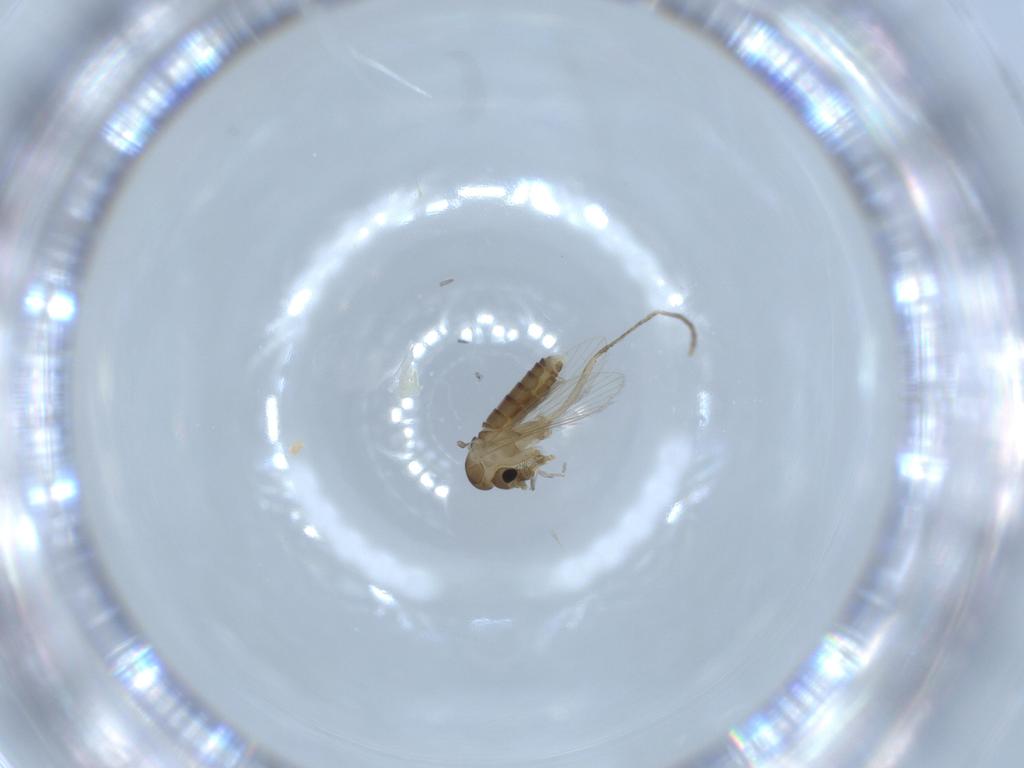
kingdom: Animalia
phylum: Arthropoda
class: Insecta
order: Diptera
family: Psychodidae
